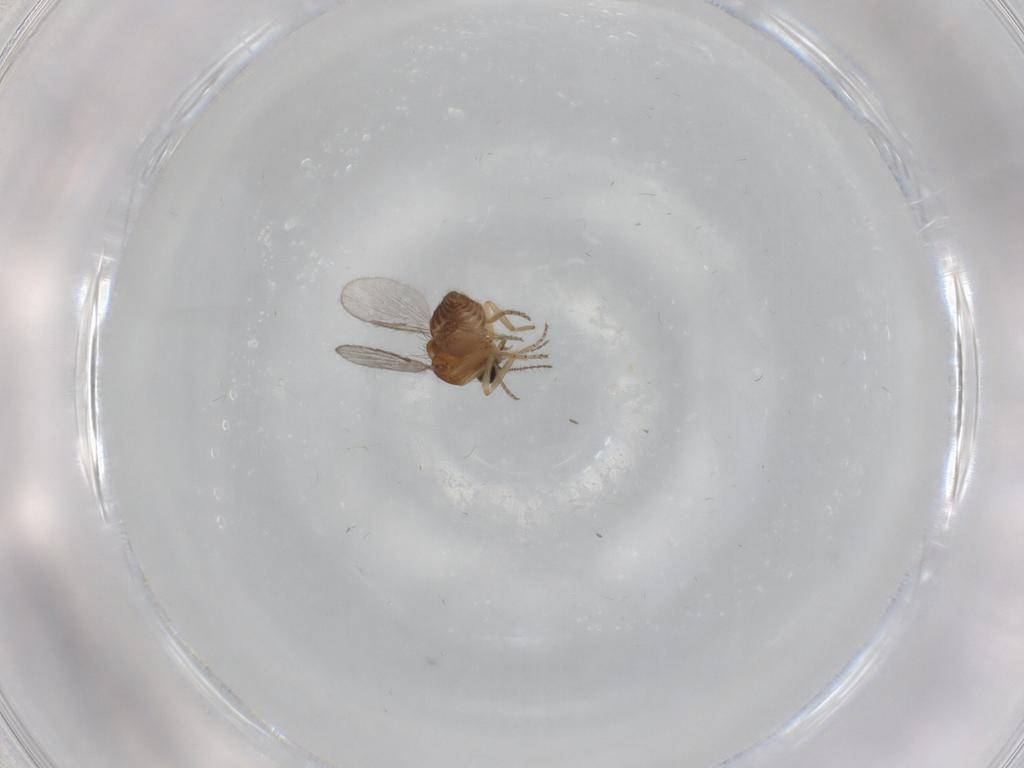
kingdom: Animalia
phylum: Arthropoda
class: Insecta
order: Diptera
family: Ceratopogonidae
